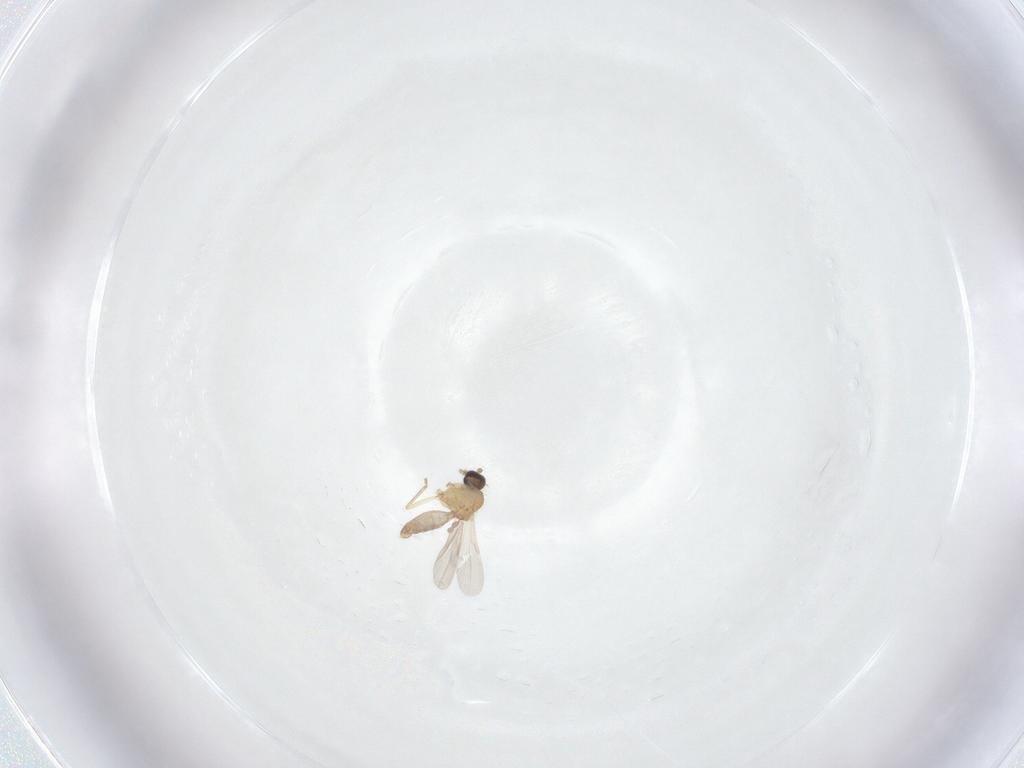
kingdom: Animalia
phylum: Arthropoda
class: Insecta
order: Diptera
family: Ceratopogonidae
